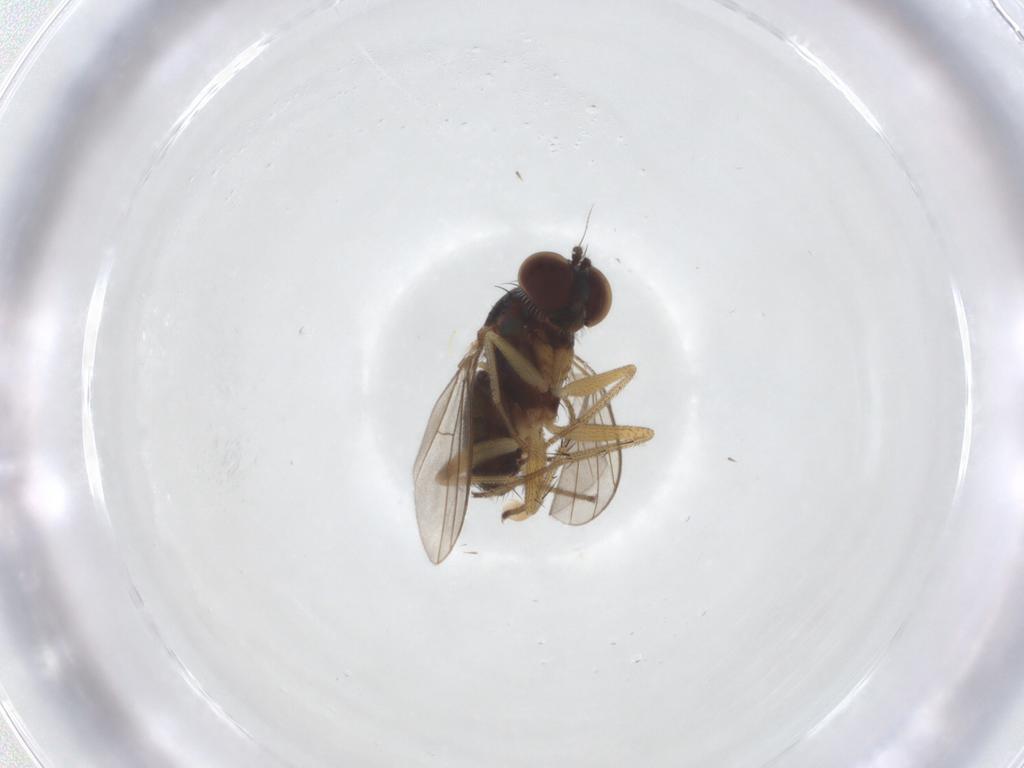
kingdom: Animalia
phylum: Arthropoda
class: Insecta
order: Diptera
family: Dolichopodidae
